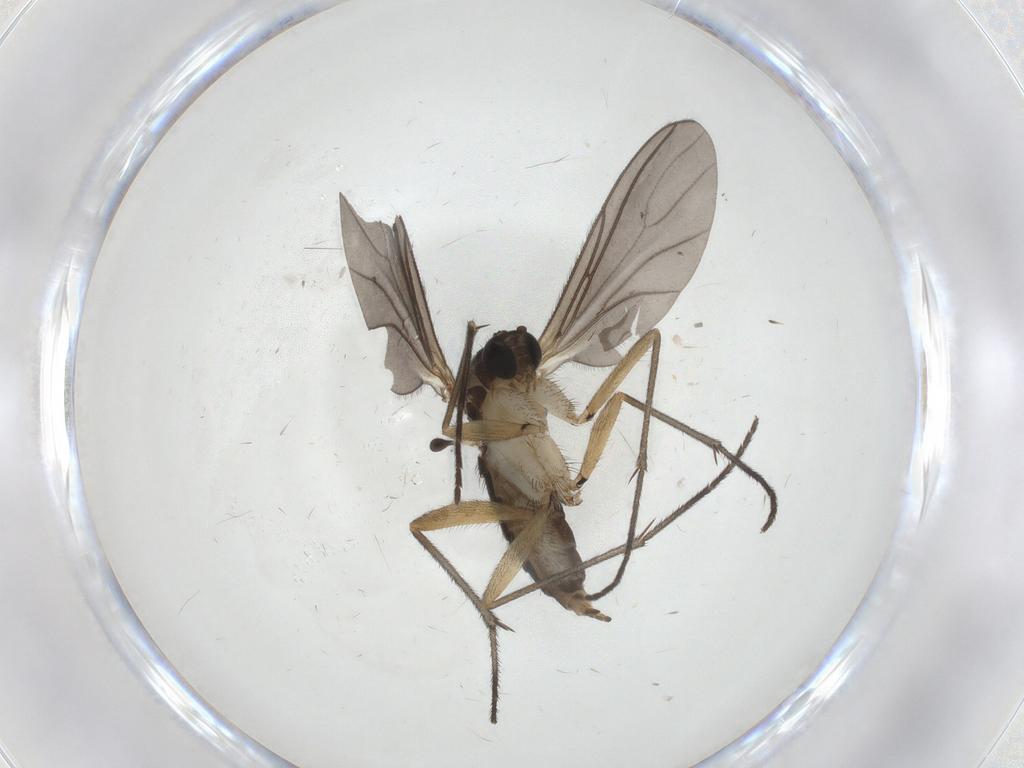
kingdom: Animalia
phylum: Arthropoda
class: Insecta
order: Diptera
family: Sciaridae
